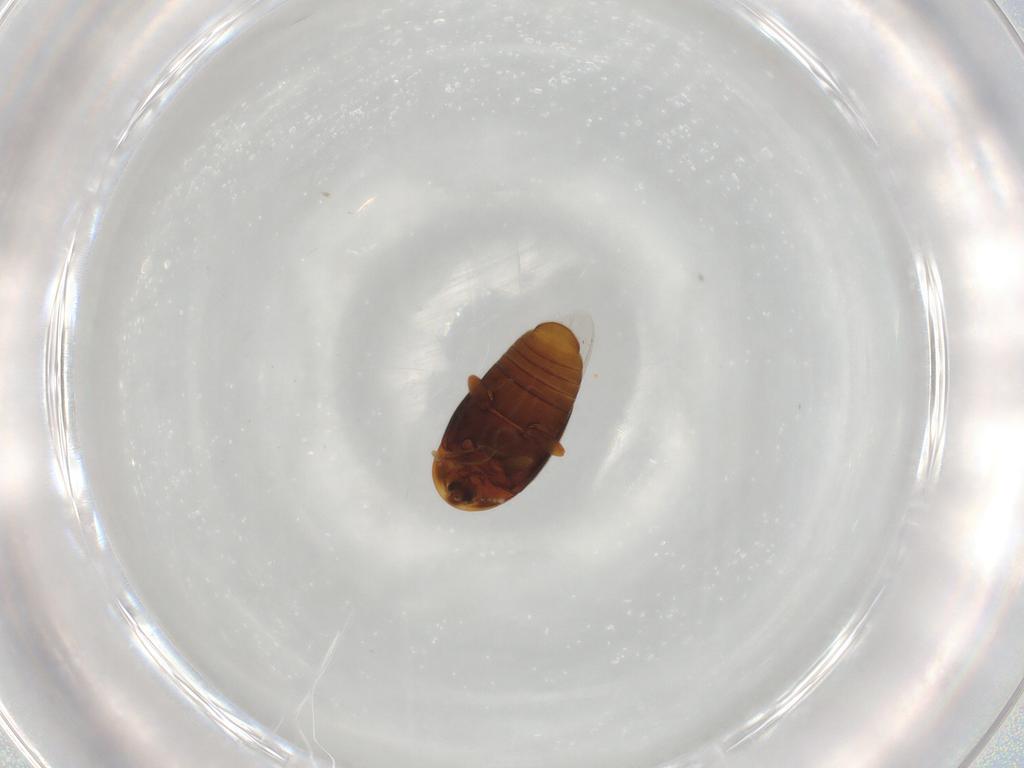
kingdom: Animalia
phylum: Arthropoda
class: Insecta
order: Coleoptera
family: Corylophidae
